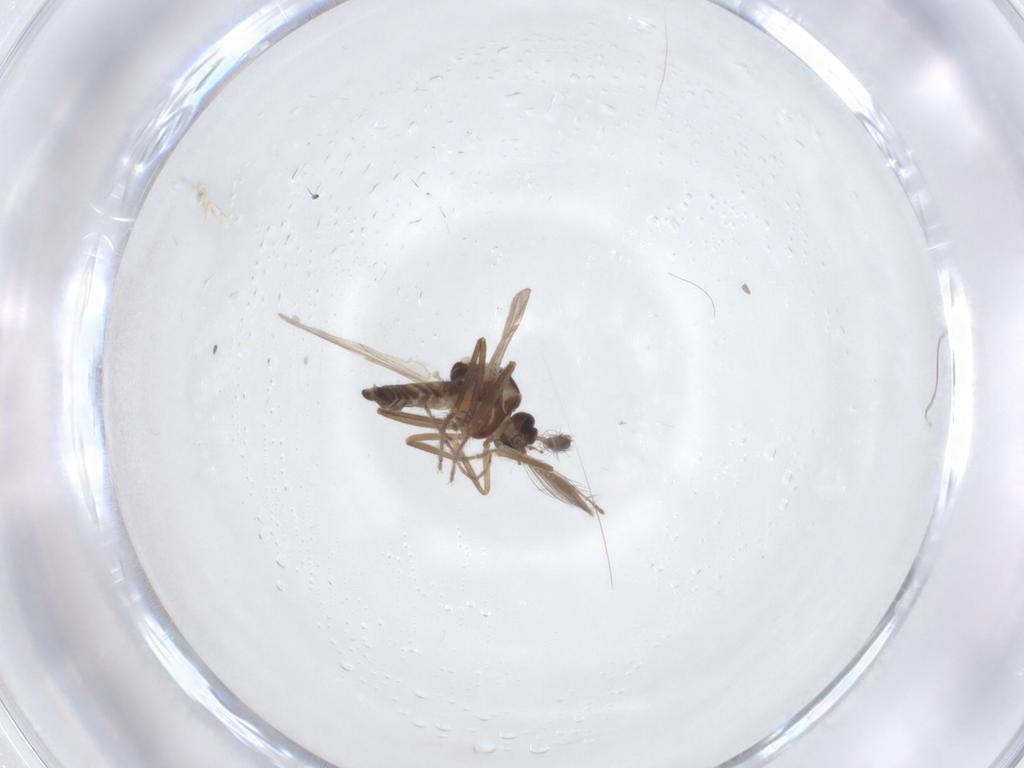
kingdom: Animalia
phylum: Arthropoda
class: Insecta
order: Diptera
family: Ceratopogonidae
